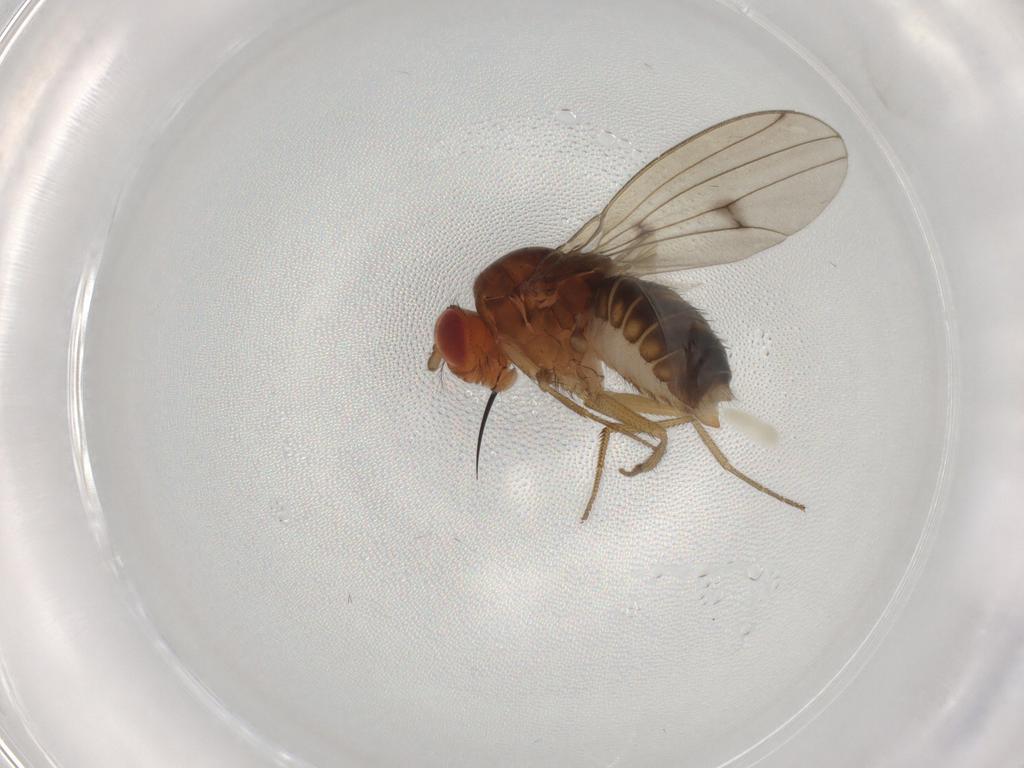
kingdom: Animalia
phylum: Arthropoda
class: Insecta
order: Diptera
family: Drosophilidae
